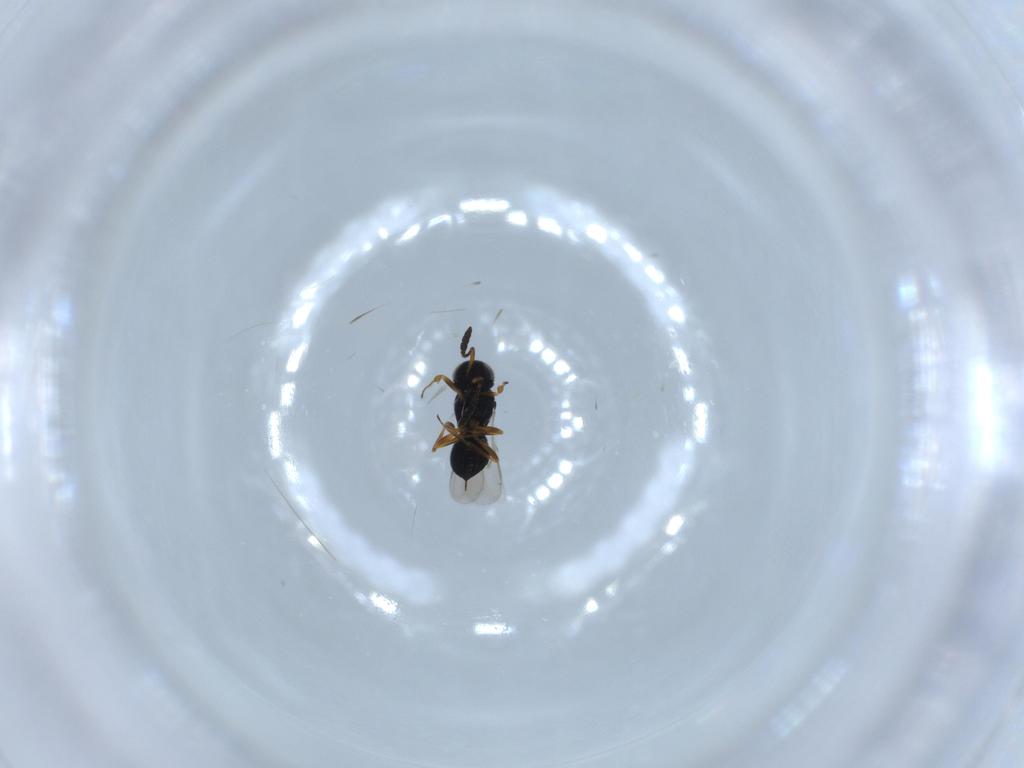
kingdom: Animalia
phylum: Arthropoda
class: Insecta
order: Hymenoptera
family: Scelionidae
